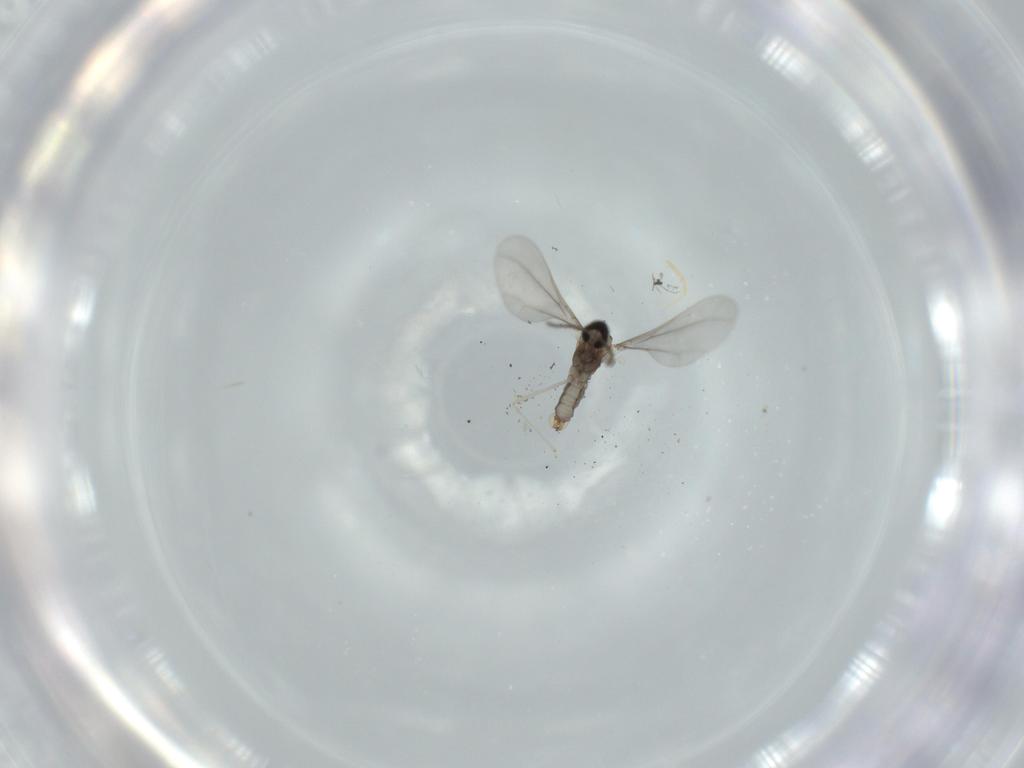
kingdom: Animalia
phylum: Arthropoda
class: Insecta
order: Diptera
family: Cecidomyiidae
